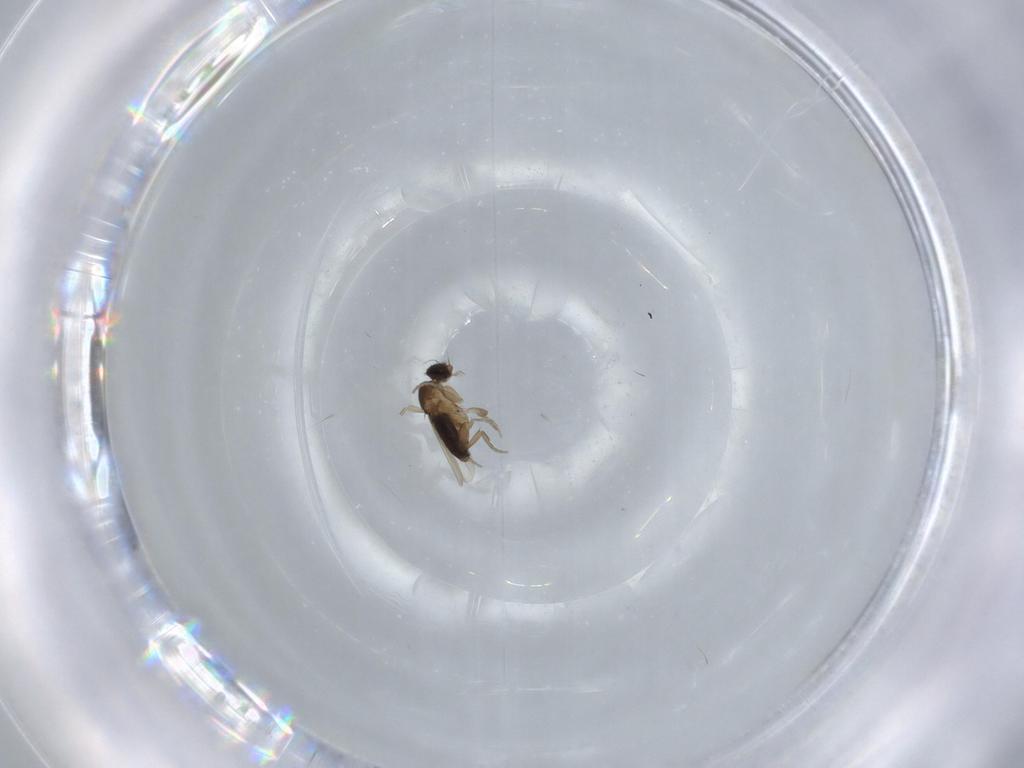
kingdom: Animalia
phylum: Arthropoda
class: Insecta
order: Diptera
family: Phoridae
